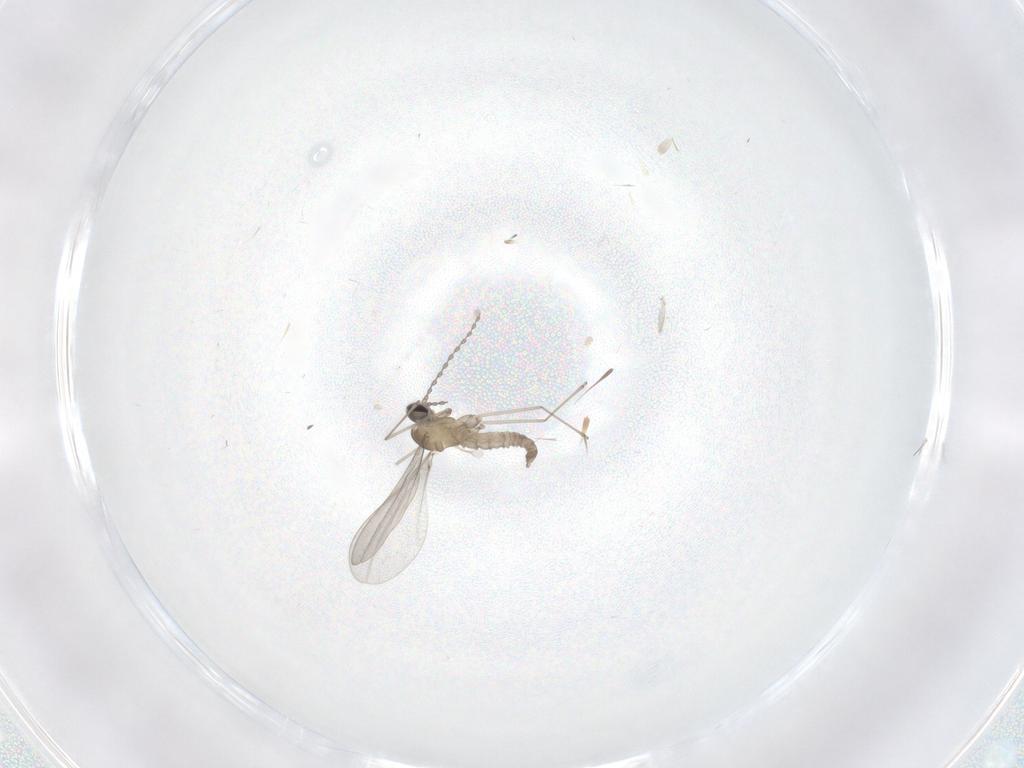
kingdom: Animalia
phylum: Arthropoda
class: Insecta
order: Diptera
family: Cecidomyiidae
